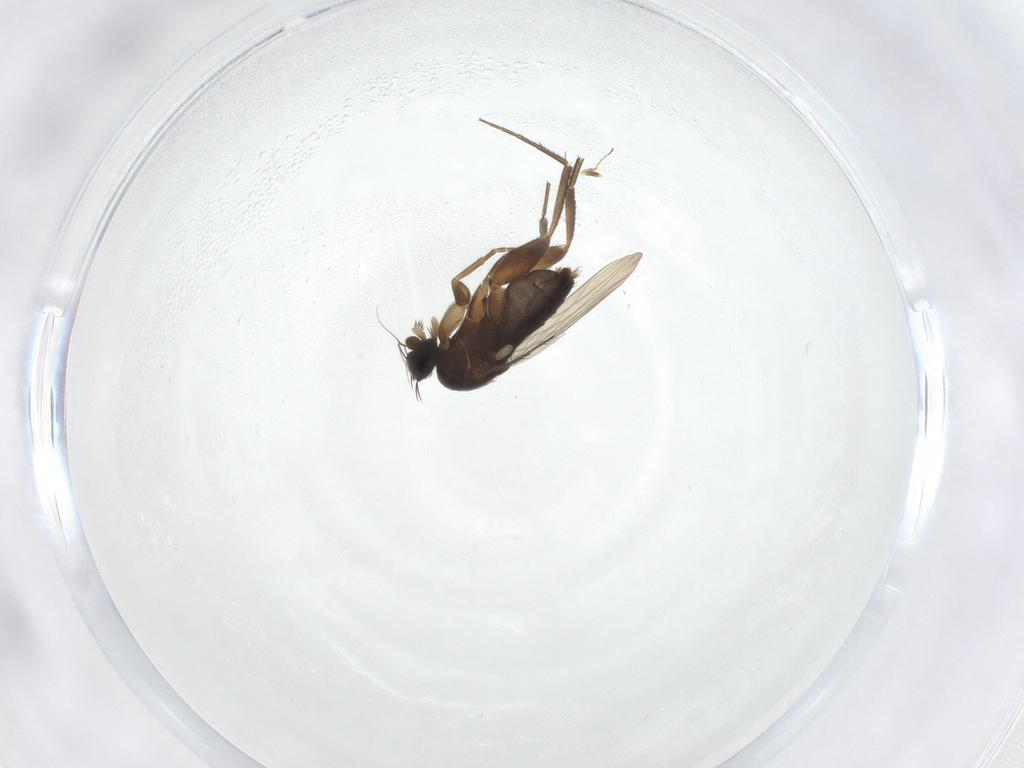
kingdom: Animalia
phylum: Arthropoda
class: Insecta
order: Diptera
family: Phoridae
